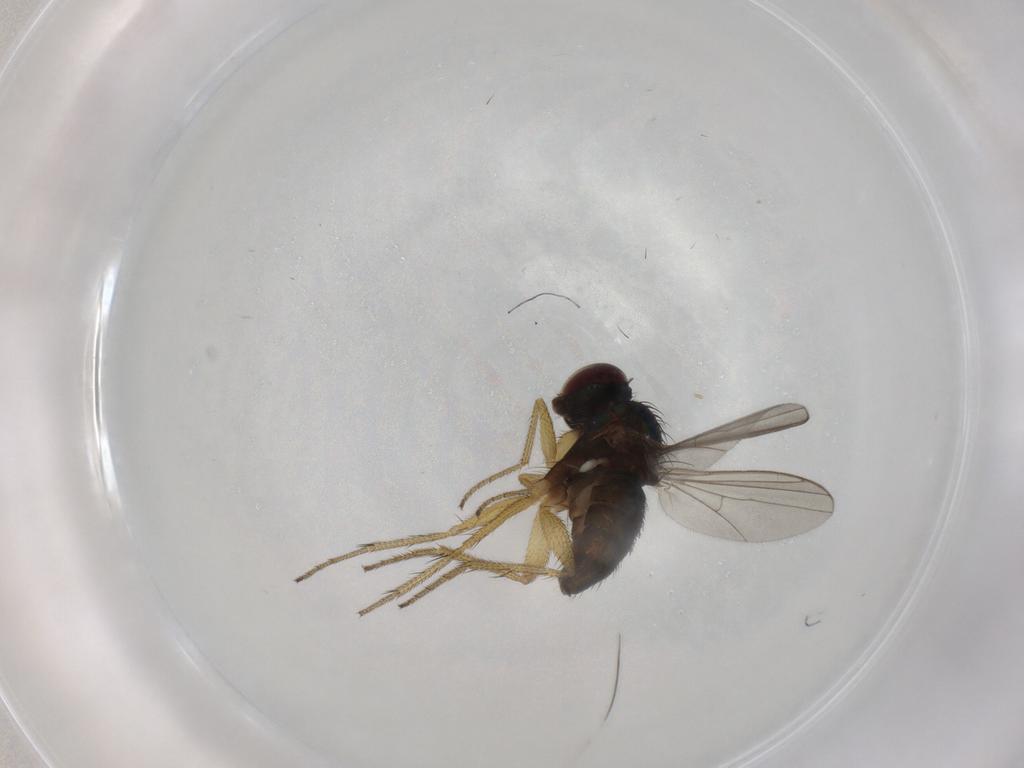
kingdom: Animalia
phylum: Arthropoda
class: Insecta
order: Diptera
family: Dolichopodidae
